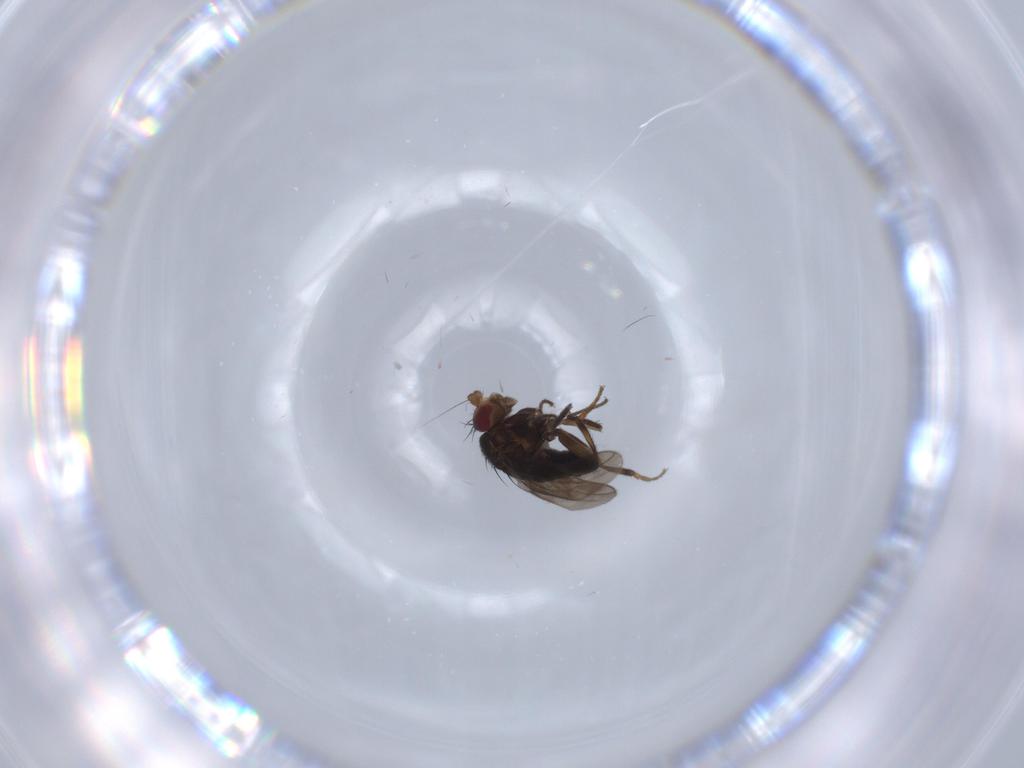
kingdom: Animalia
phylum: Arthropoda
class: Insecta
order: Diptera
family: Sphaeroceridae
